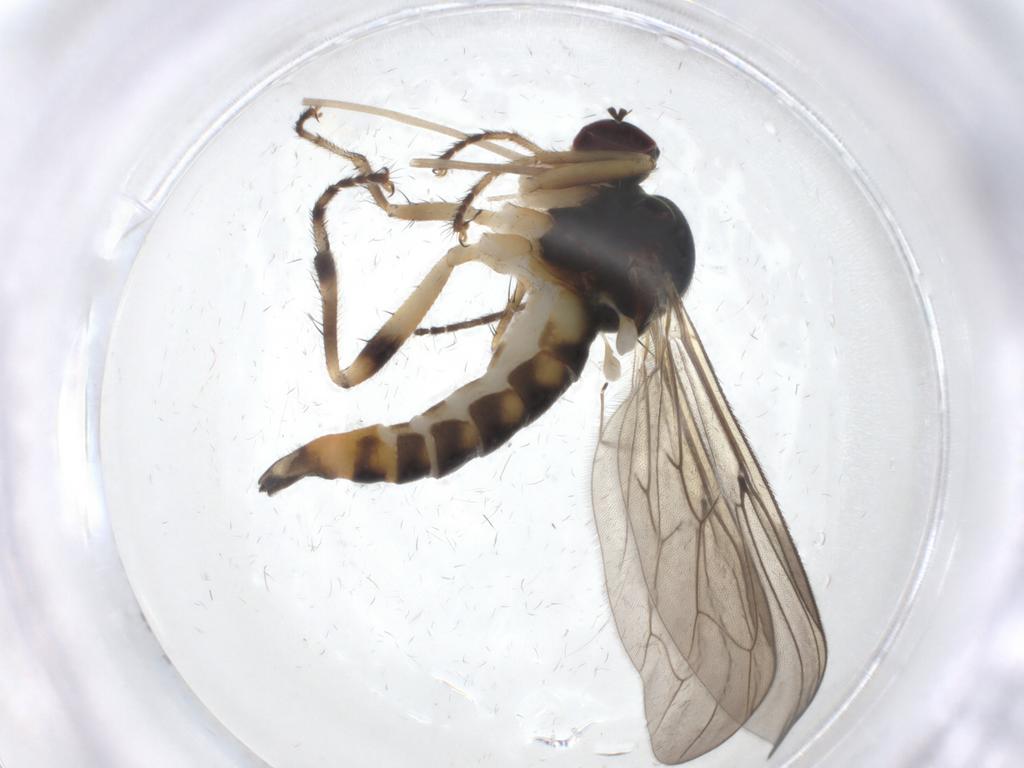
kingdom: Animalia
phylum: Arthropoda
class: Insecta
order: Diptera
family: Hybotidae
